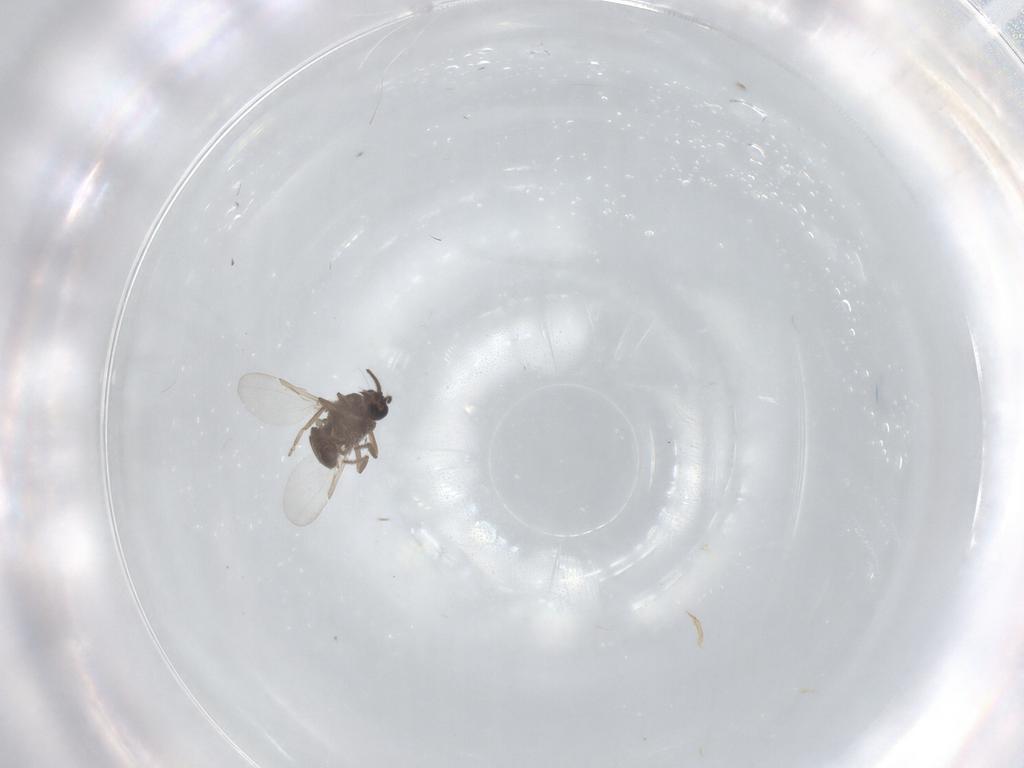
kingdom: Animalia
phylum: Arthropoda
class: Insecta
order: Diptera
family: Ceratopogonidae
